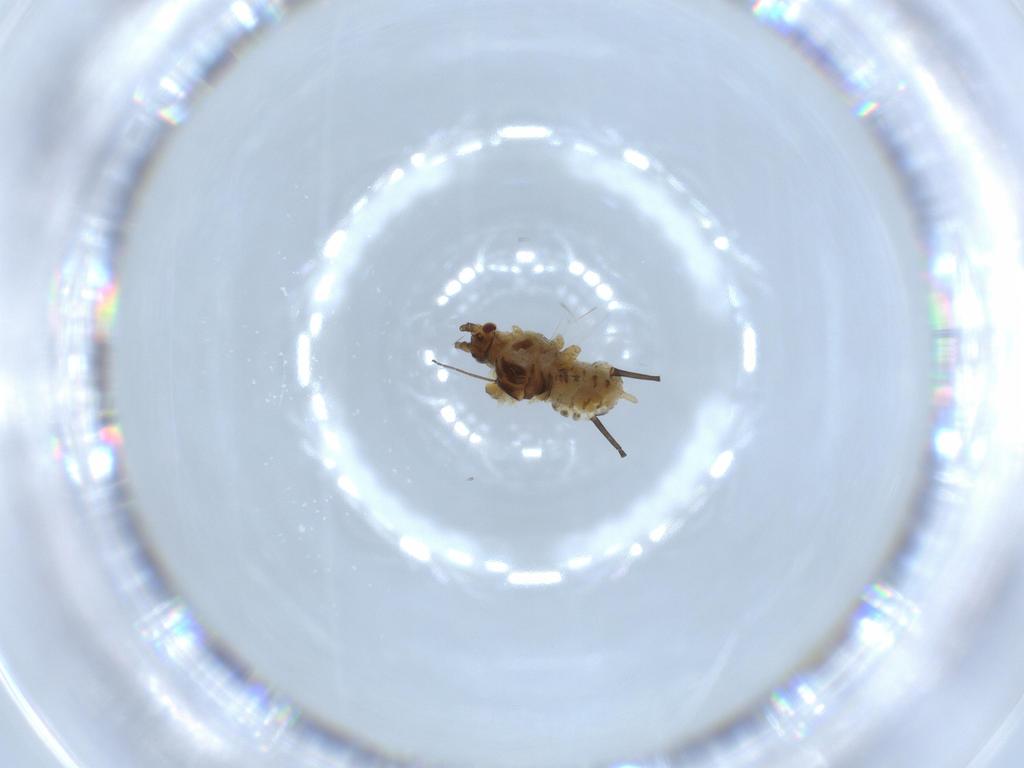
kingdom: Animalia
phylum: Arthropoda
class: Insecta
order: Hemiptera
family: Aphididae
